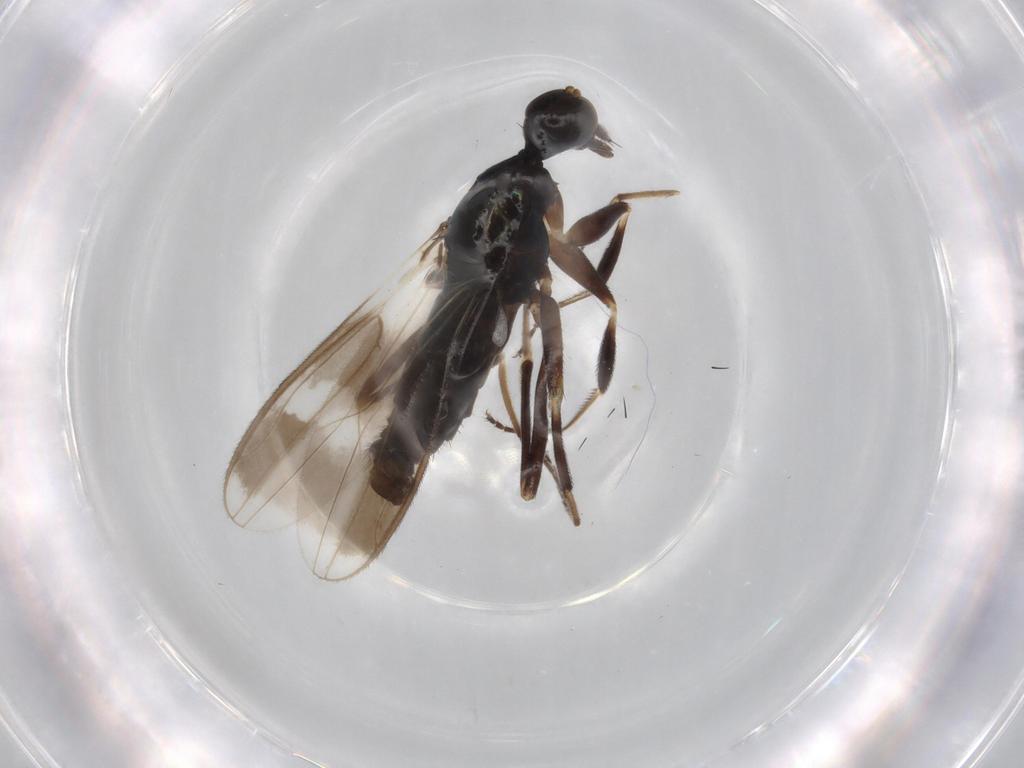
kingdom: Animalia
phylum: Arthropoda
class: Insecta
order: Diptera
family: Hybotidae
